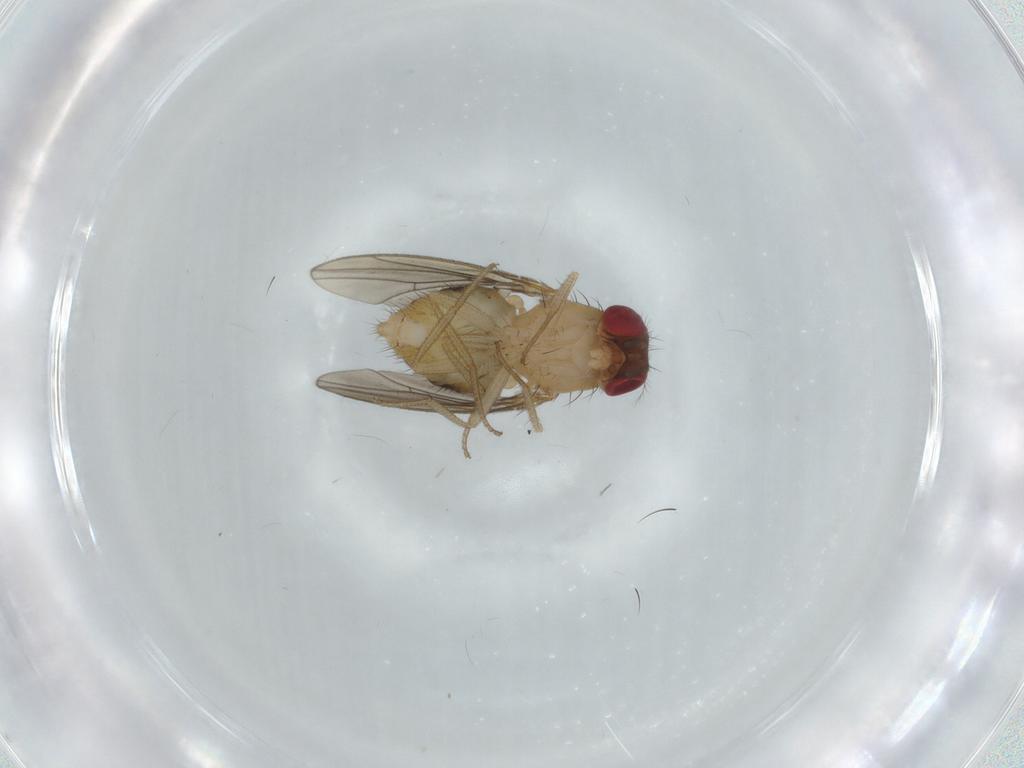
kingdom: Animalia
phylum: Arthropoda
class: Insecta
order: Diptera
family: Drosophilidae
